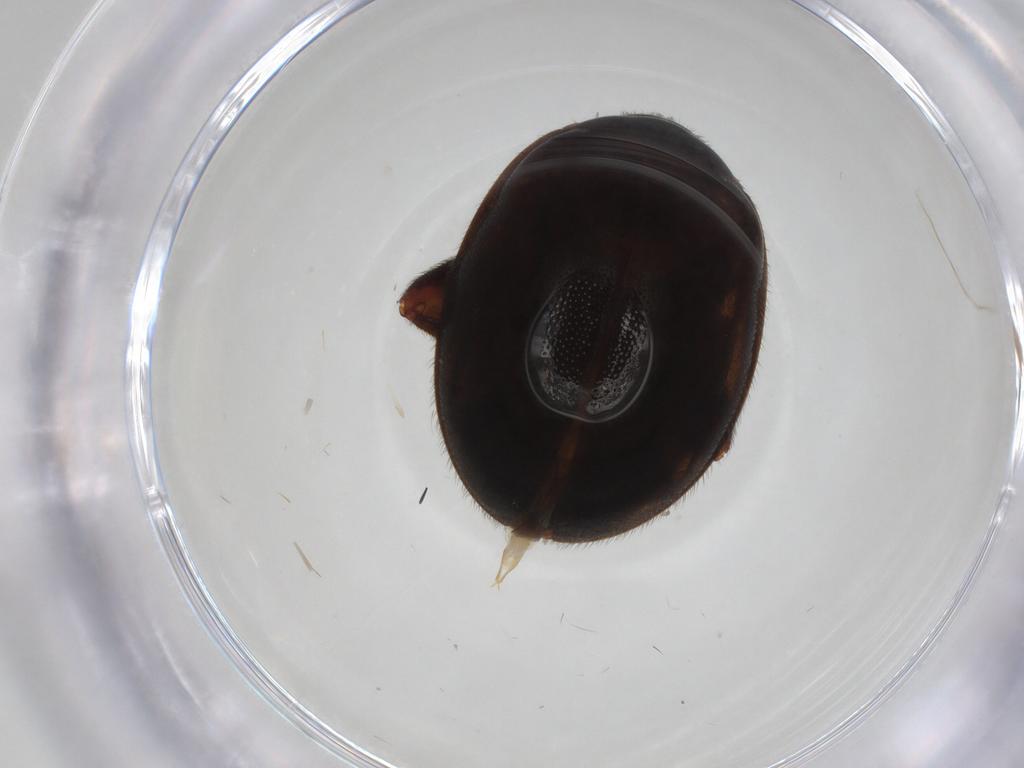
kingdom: Animalia
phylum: Arthropoda
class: Insecta
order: Coleoptera
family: Scirtidae
